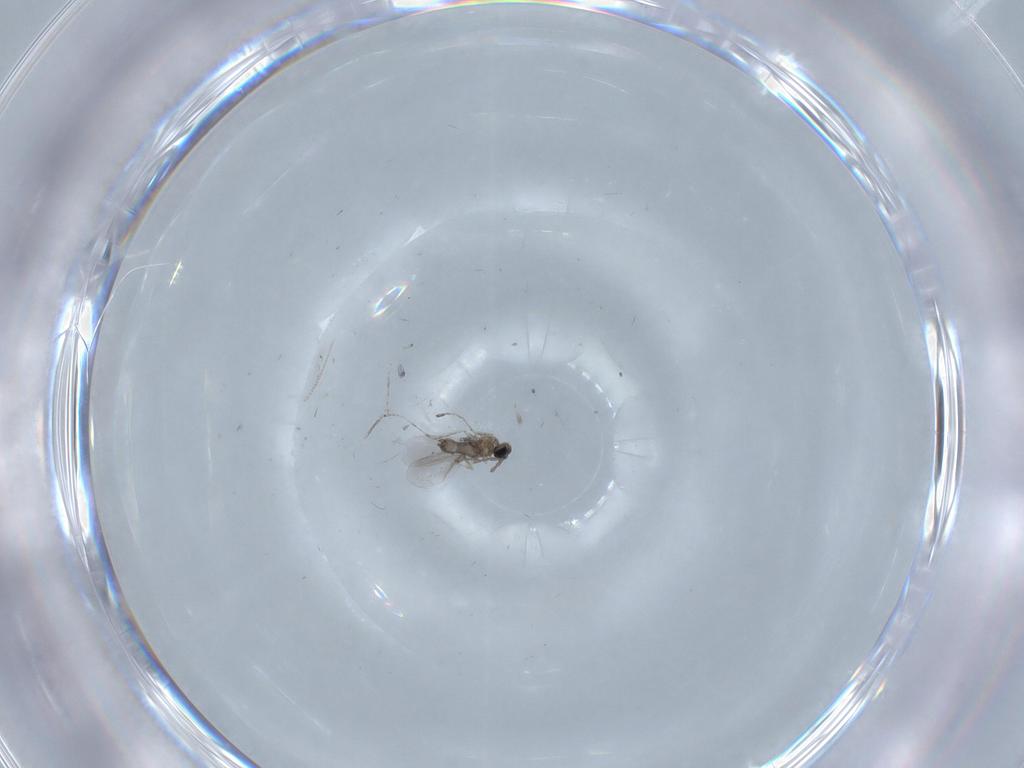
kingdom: Animalia
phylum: Arthropoda
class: Insecta
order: Diptera
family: Cecidomyiidae
